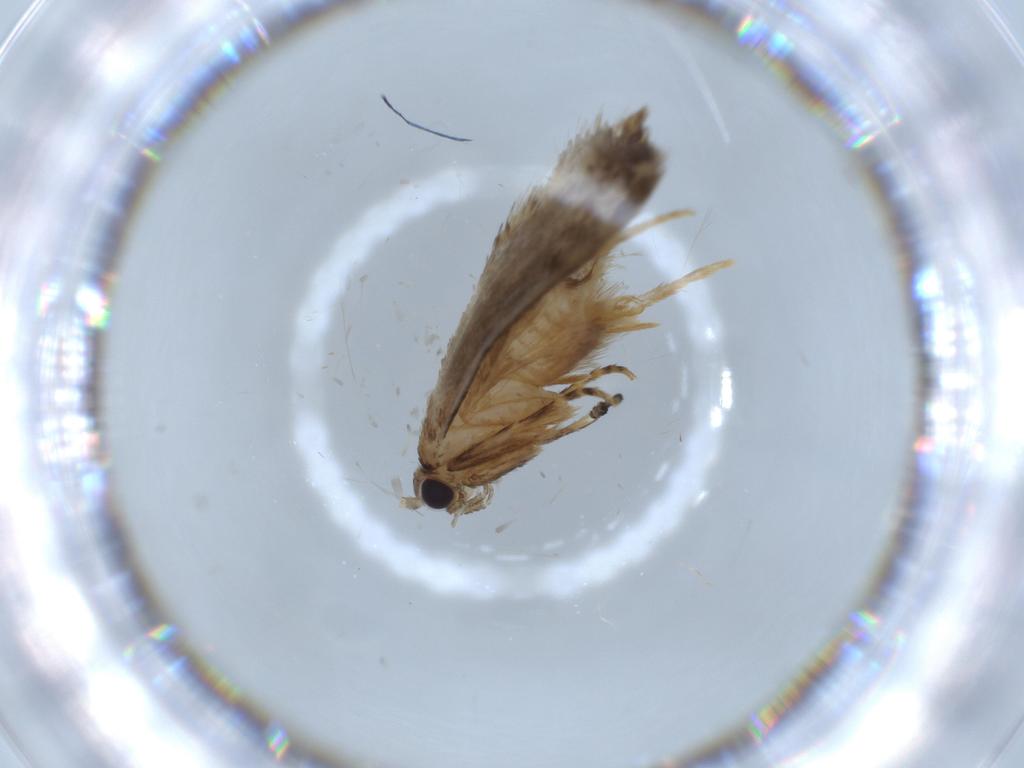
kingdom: Animalia
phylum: Arthropoda
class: Insecta
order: Lepidoptera
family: Tineidae
